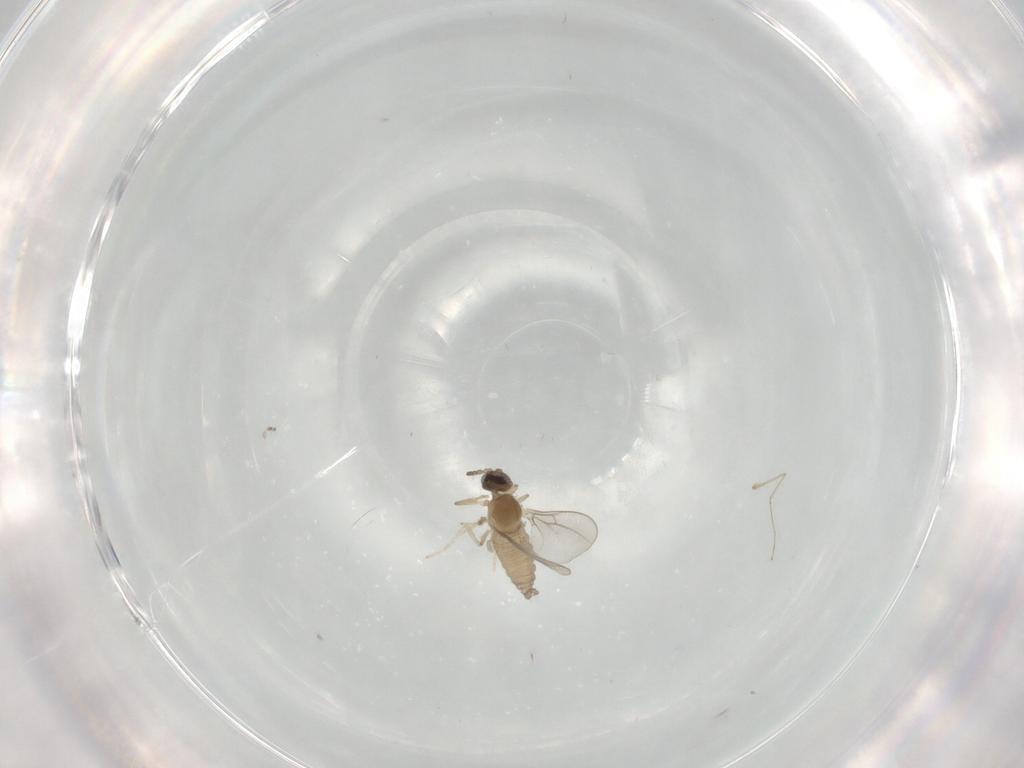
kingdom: Animalia
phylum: Arthropoda
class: Insecta
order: Diptera
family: Cecidomyiidae
